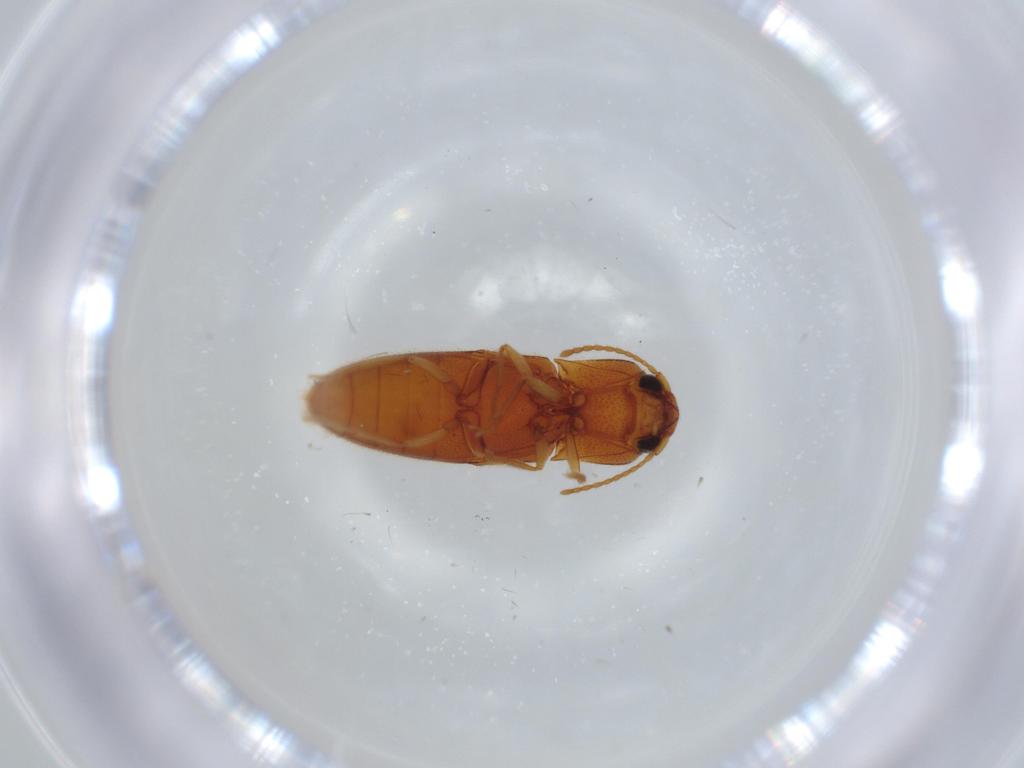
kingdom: Animalia
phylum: Arthropoda
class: Insecta
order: Coleoptera
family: Elateridae
